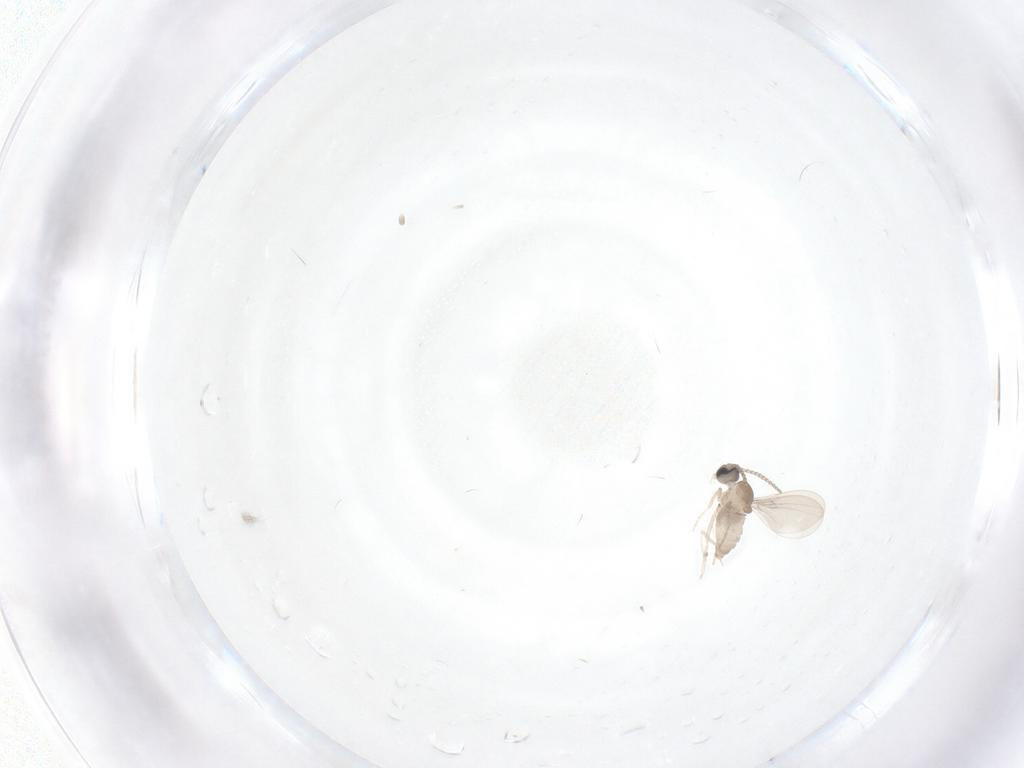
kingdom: Animalia
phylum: Arthropoda
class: Insecta
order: Diptera
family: Cecidomyiidae
